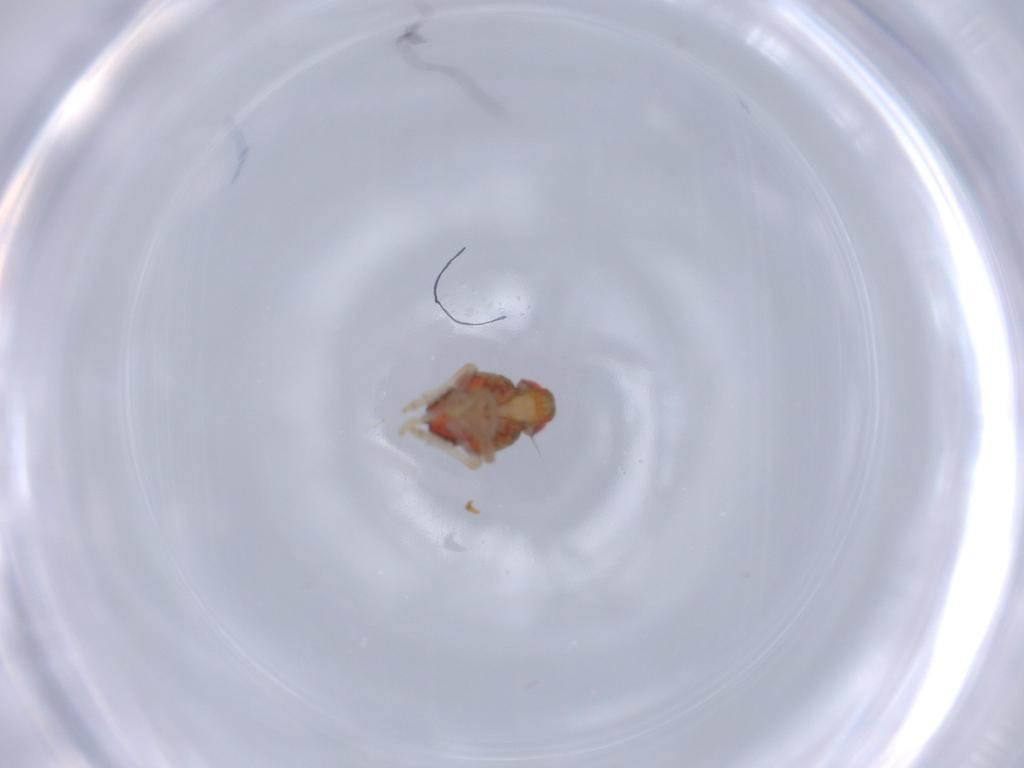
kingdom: Animalia
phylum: Arthropoda
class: Insecta
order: Hemiptera
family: Issidae
